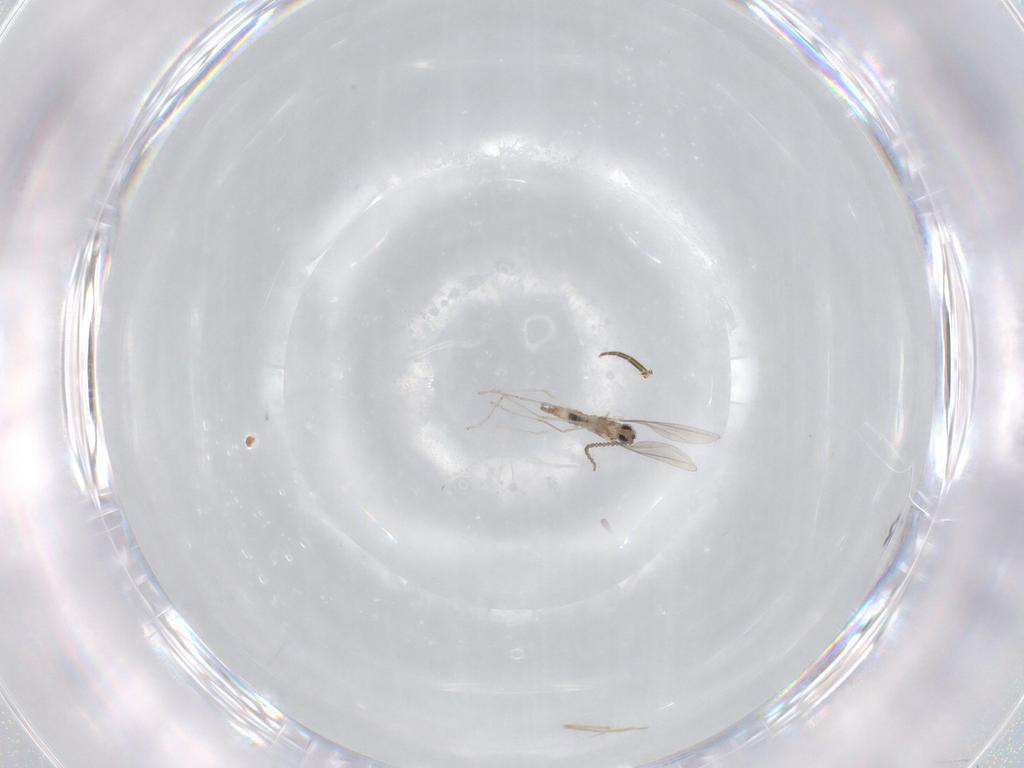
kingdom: Animalia
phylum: Arthropoda
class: Insecta
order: Diptera
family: Cecidomyiidae
